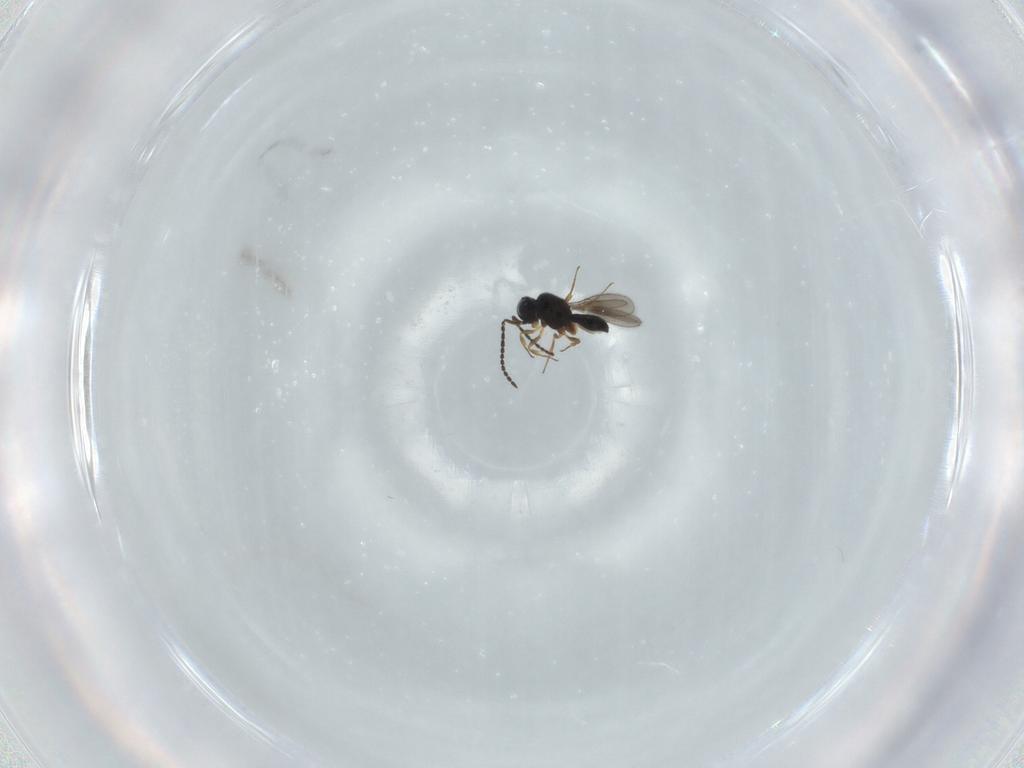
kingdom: Animalia
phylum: Arthropoda
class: Insecta
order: Hymenoptera
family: Scelionidae
